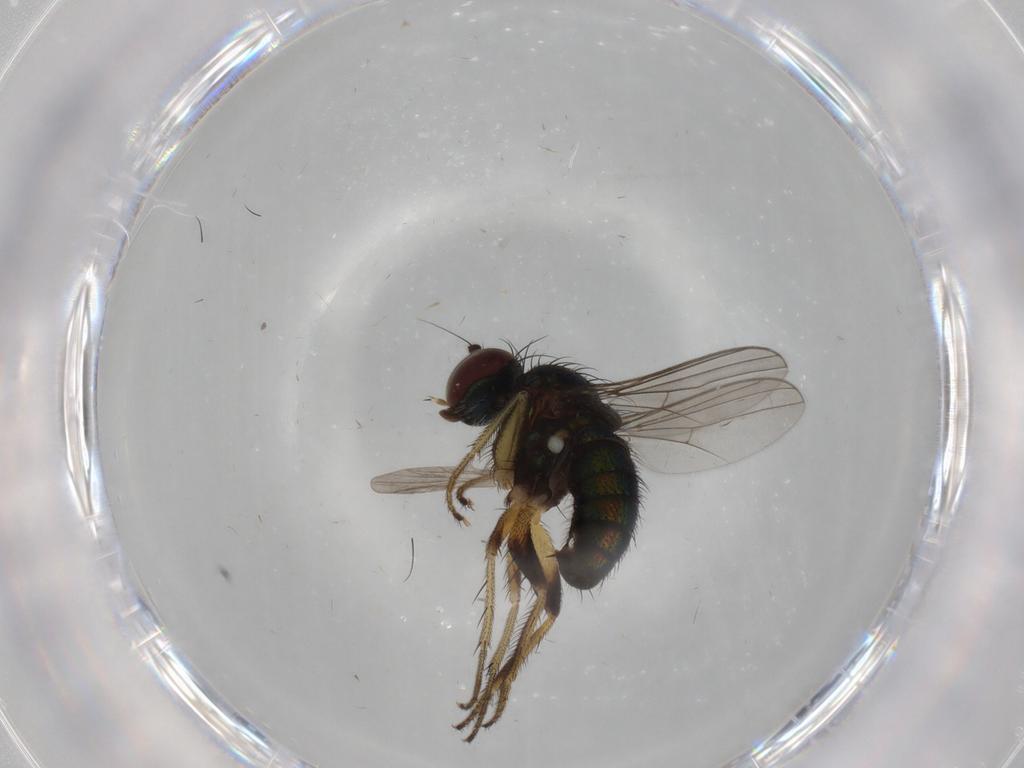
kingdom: Animalia
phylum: Arthropoda
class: Insecta
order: Diptera
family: Dolichopodidae
